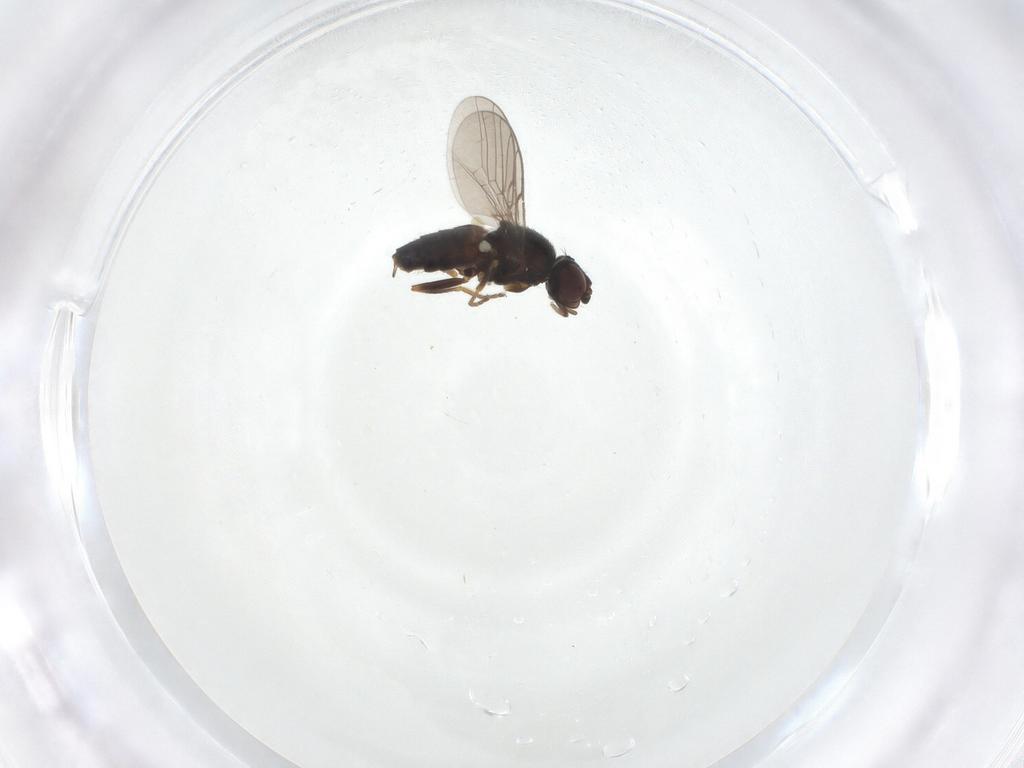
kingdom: Animalia
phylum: Arthropoda
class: Insecta
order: Diptera
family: Chloropidae
